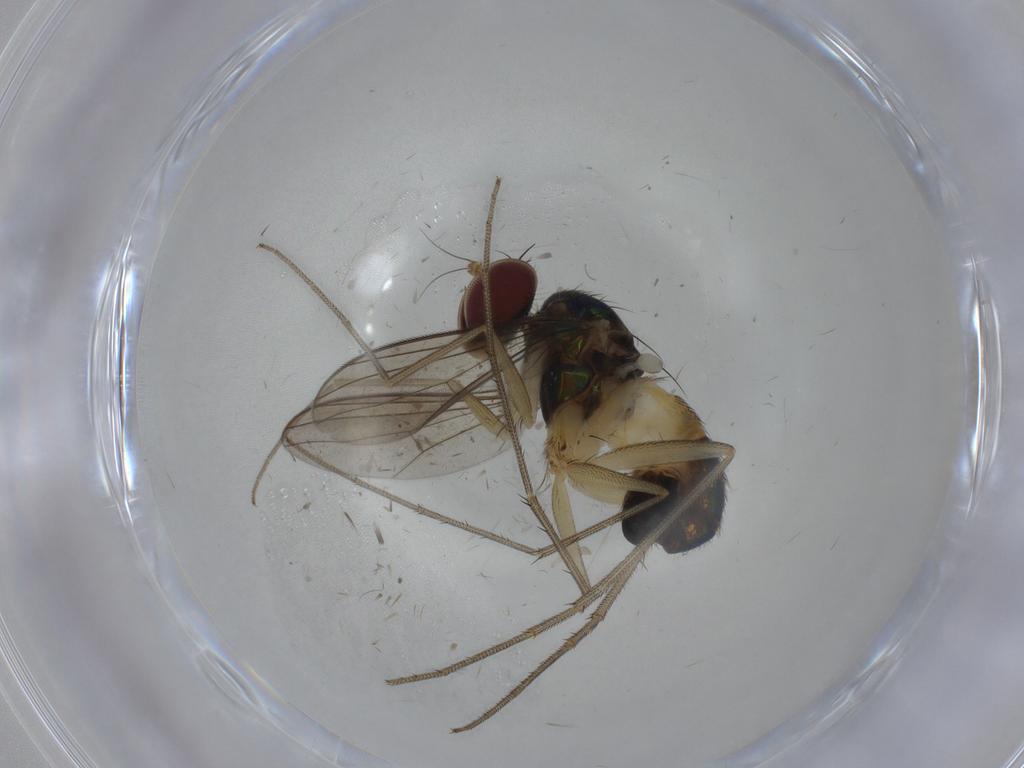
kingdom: Animalia
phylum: Arthropoda
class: Insecta
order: Diptera
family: Dolichopodidae
